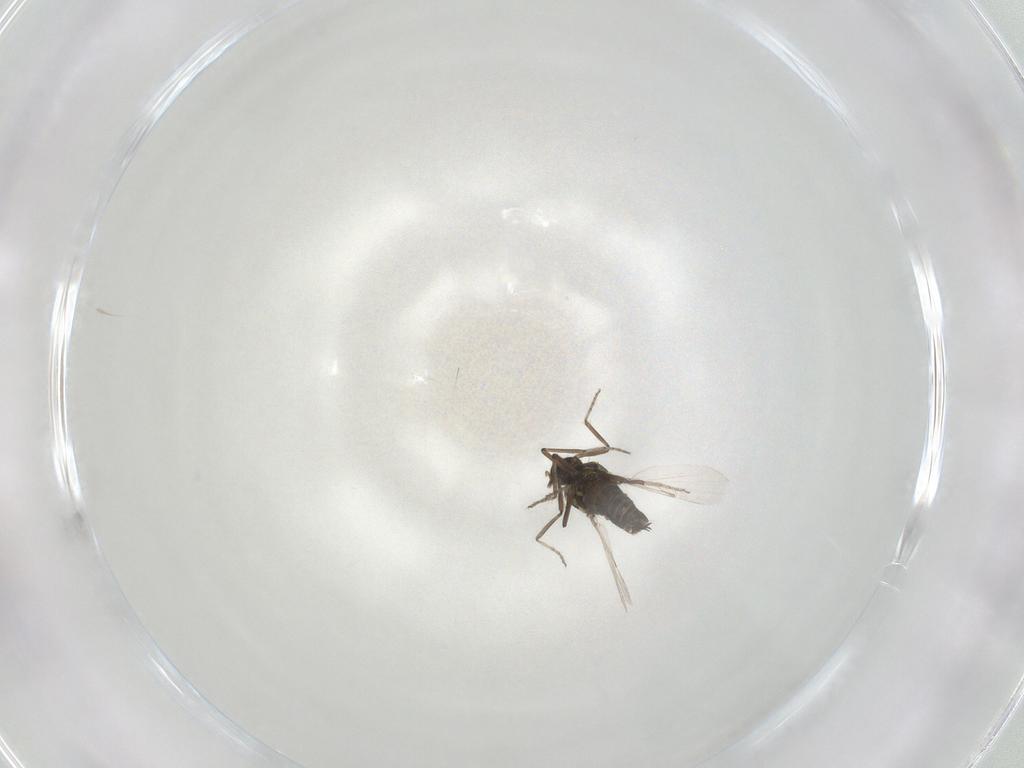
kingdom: Animalia
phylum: Arthropoda
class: Insecta
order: Diptera
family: Ceratopogonidae
